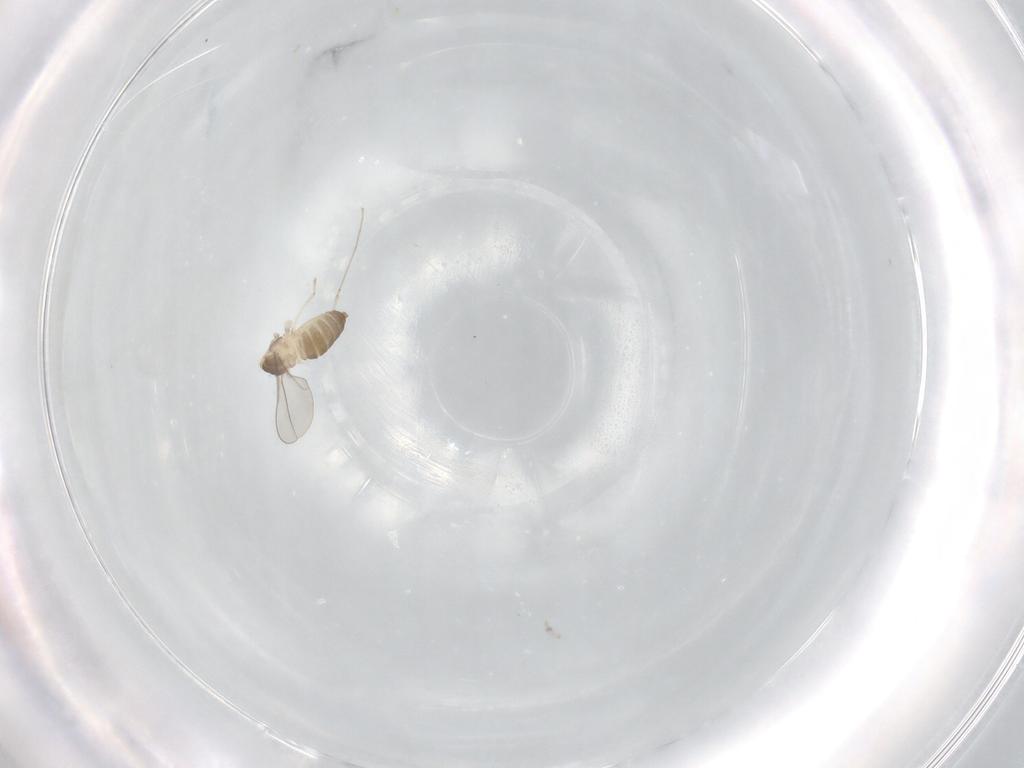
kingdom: Animalia
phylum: Arthropoda
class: Insecta
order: Diptera
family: Cecidomyiidae
